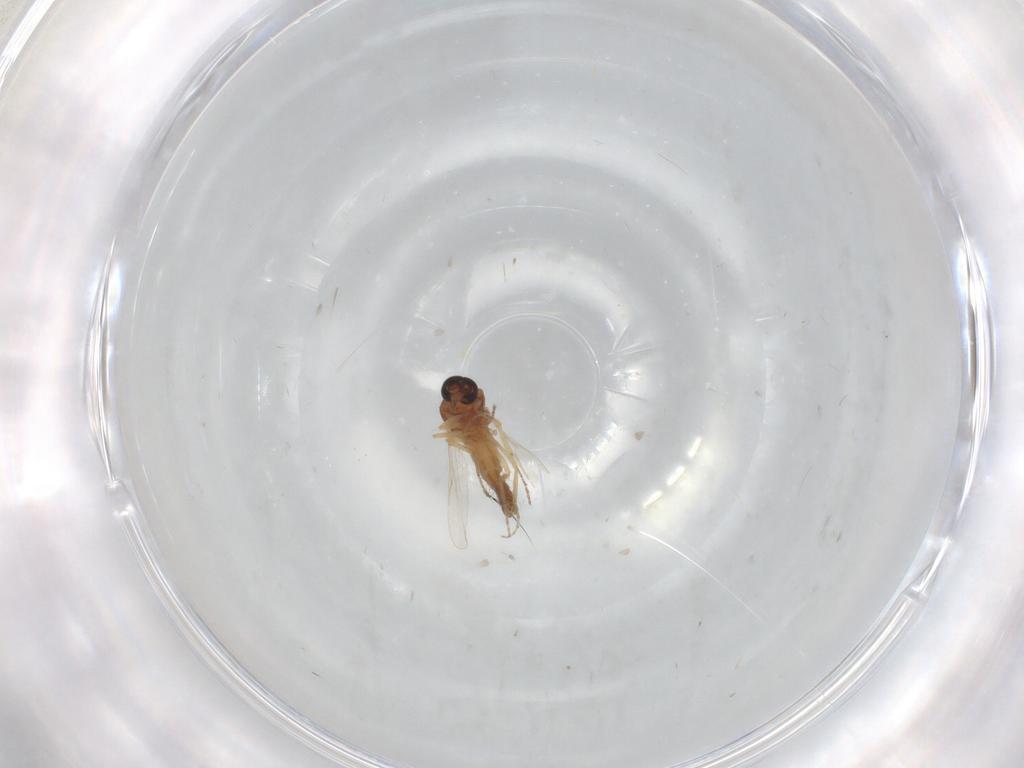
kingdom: Animalia
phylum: Arthropoda
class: Insecta
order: Diptera
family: Chironomidae
